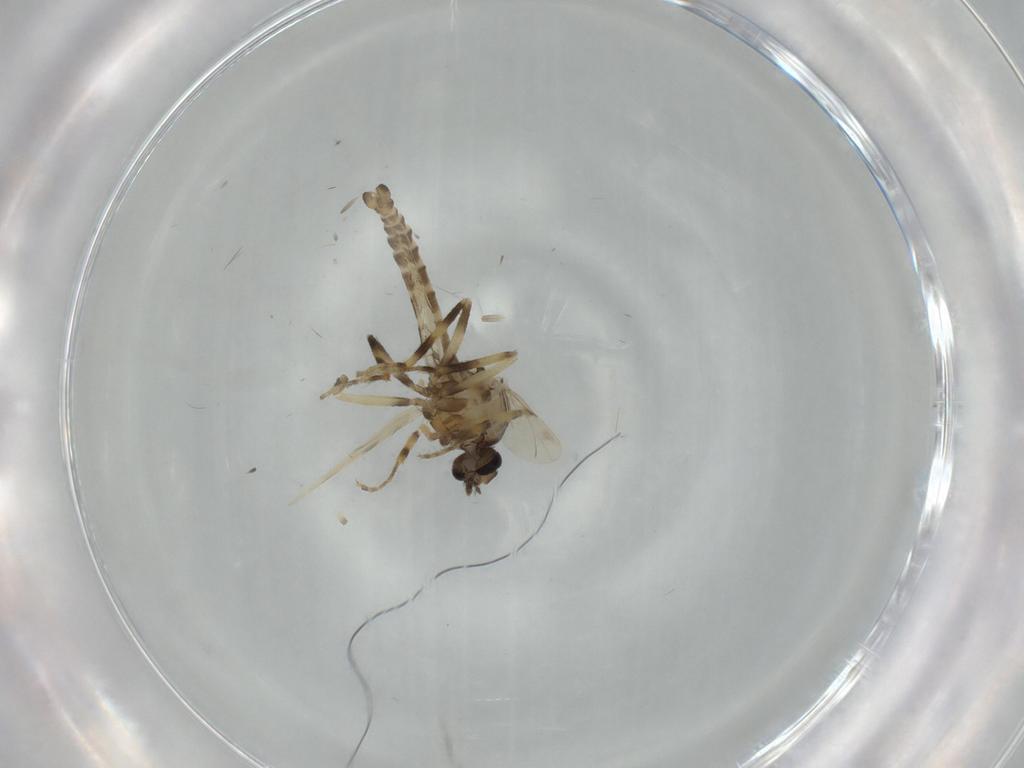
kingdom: Animalia
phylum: Arthropoda
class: Insecta
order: Diptera
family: Ceratopogonidae
